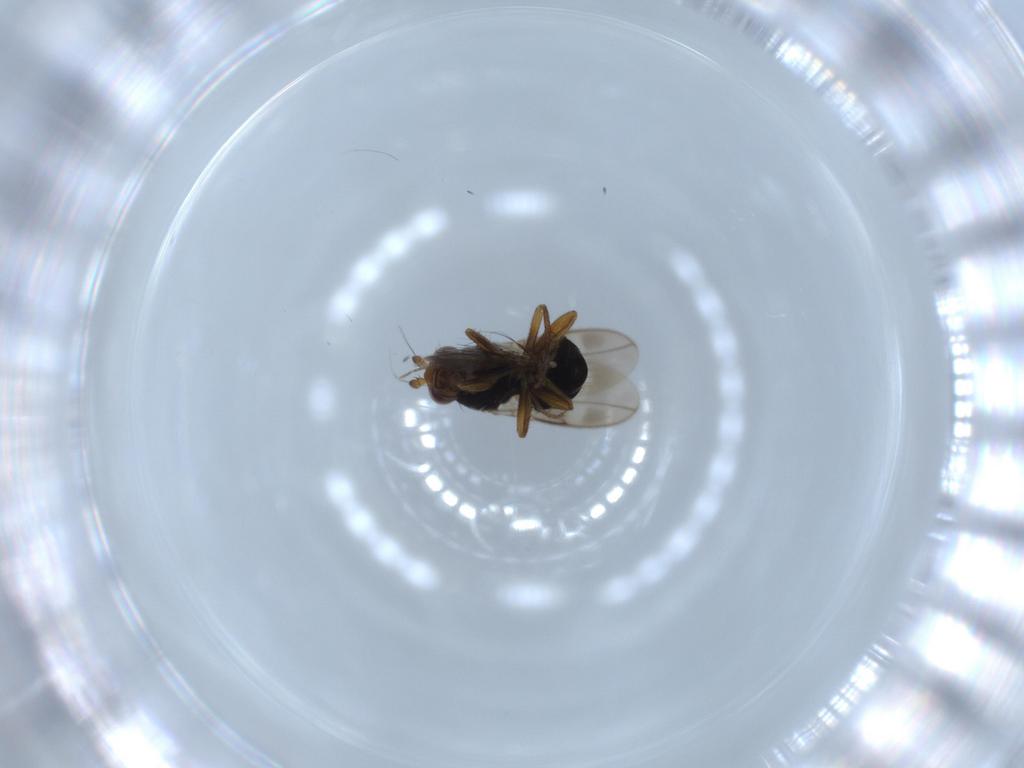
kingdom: Animalia
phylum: Arthropoda
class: Insecta
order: Diptera
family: Sphaeroceridae
